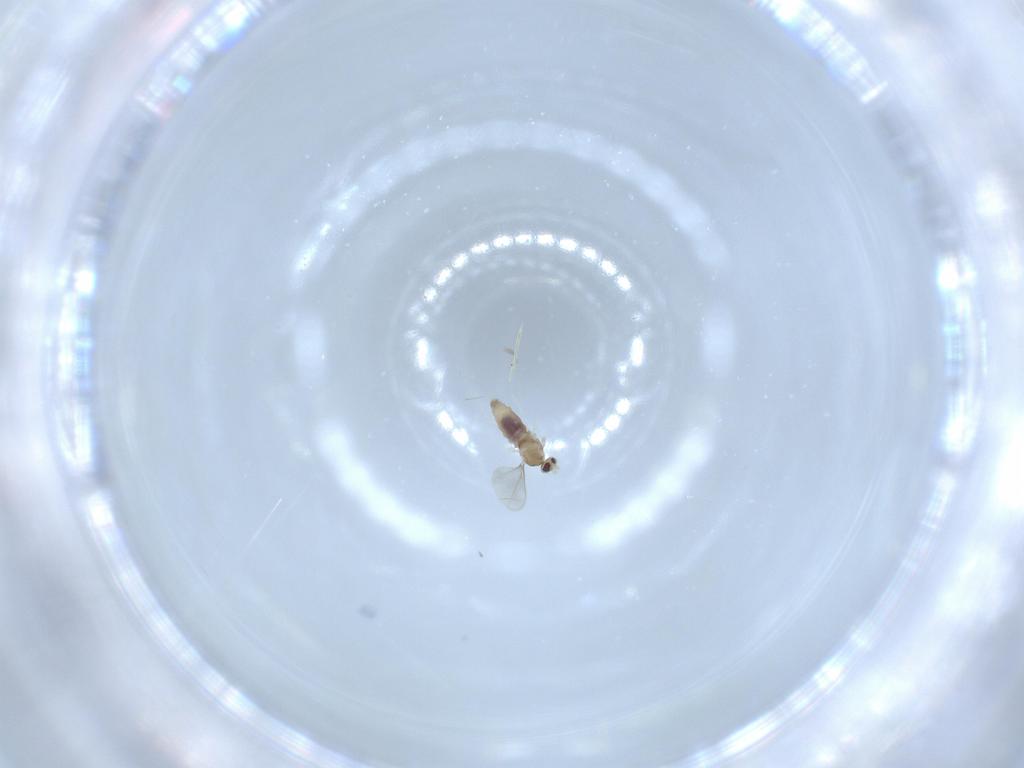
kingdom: Animalia
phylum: Arthropoda
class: Insecta
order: Diptera
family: Cecidomyiidae
